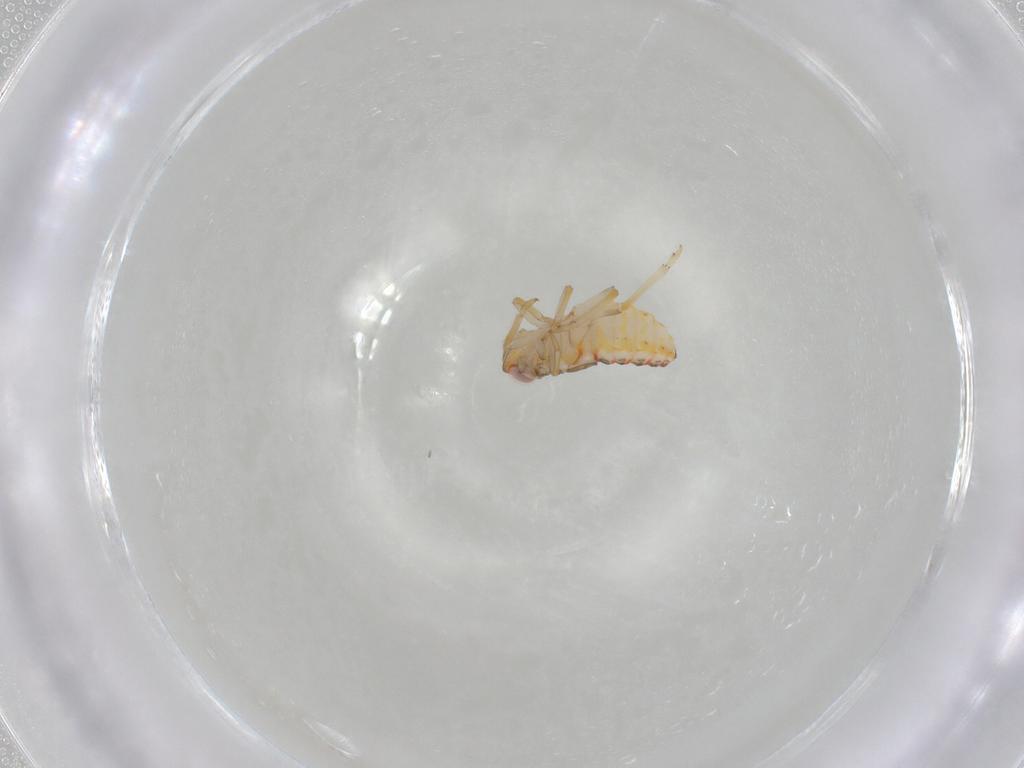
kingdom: Animalia
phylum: Arthropoda
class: Insecta
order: Hemiptera
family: Issidae
